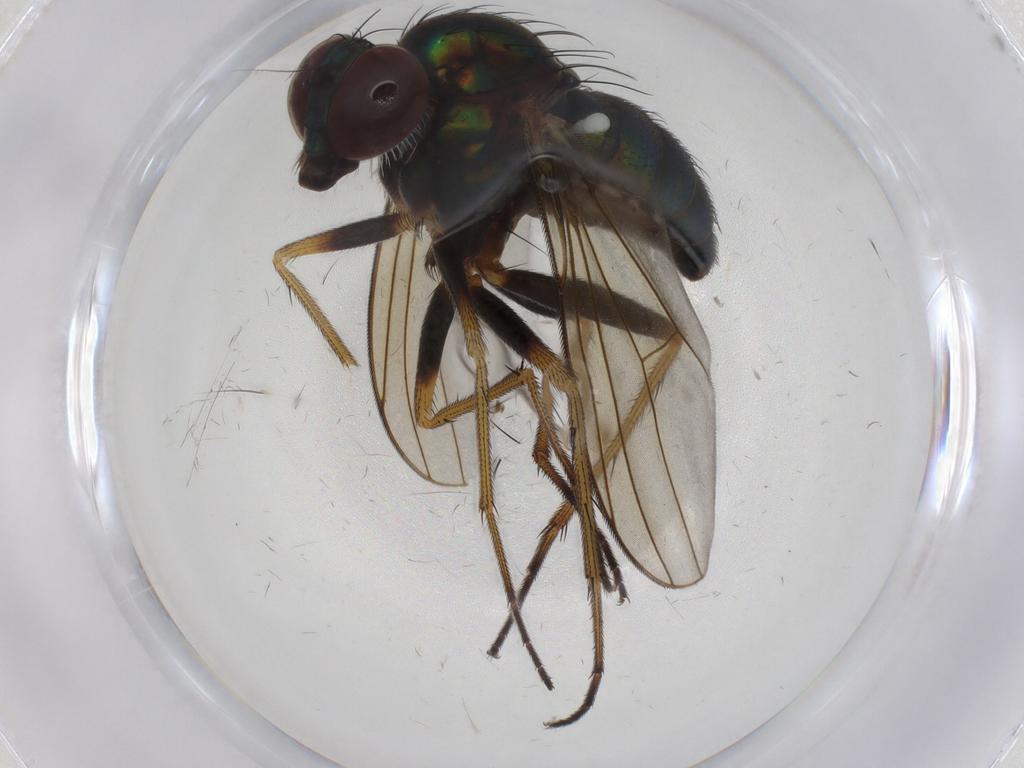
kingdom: Animalia
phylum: Arthropoda
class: Insecta
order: Diptera
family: Dolichopodidae
